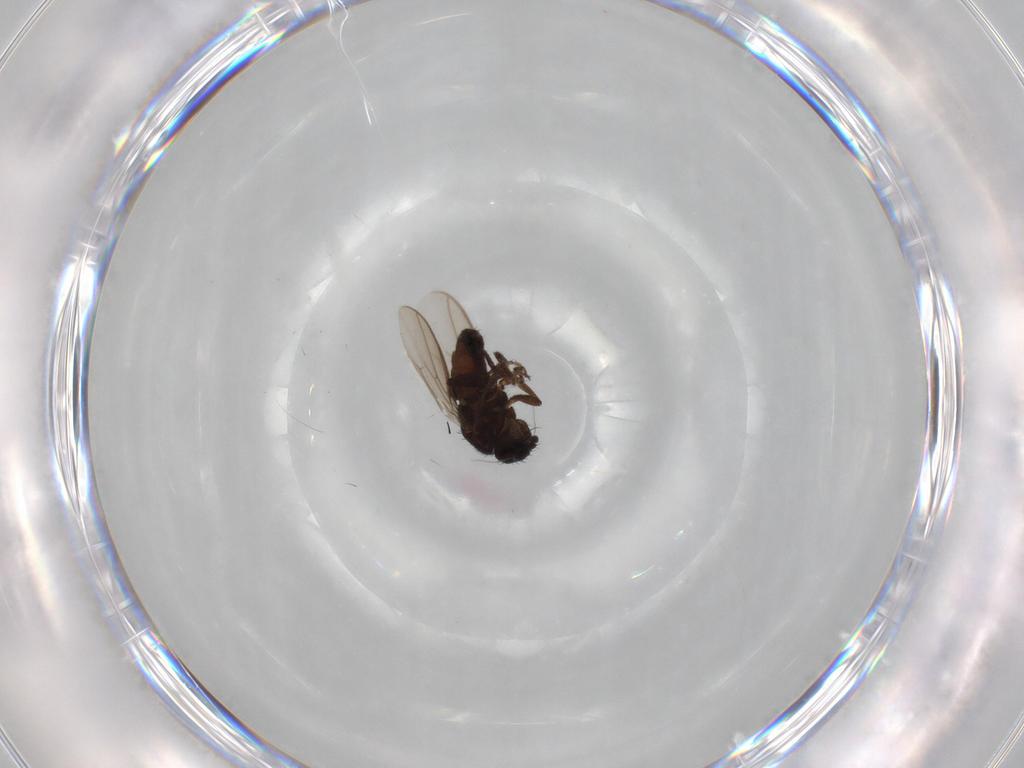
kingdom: Animalia
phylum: Arthropoda
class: Insecta
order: Diptera
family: Sphaeroceridae
